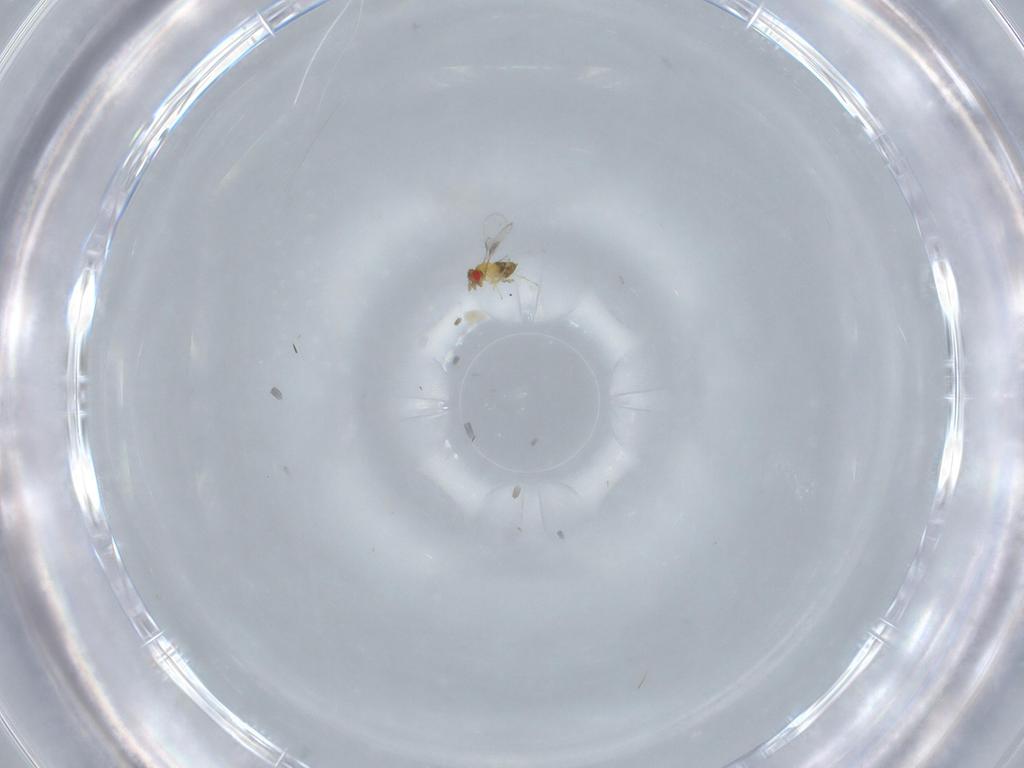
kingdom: Animalia
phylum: Arthropoda
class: Insecta
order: Hymenoptera
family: Trichogrammatidae
